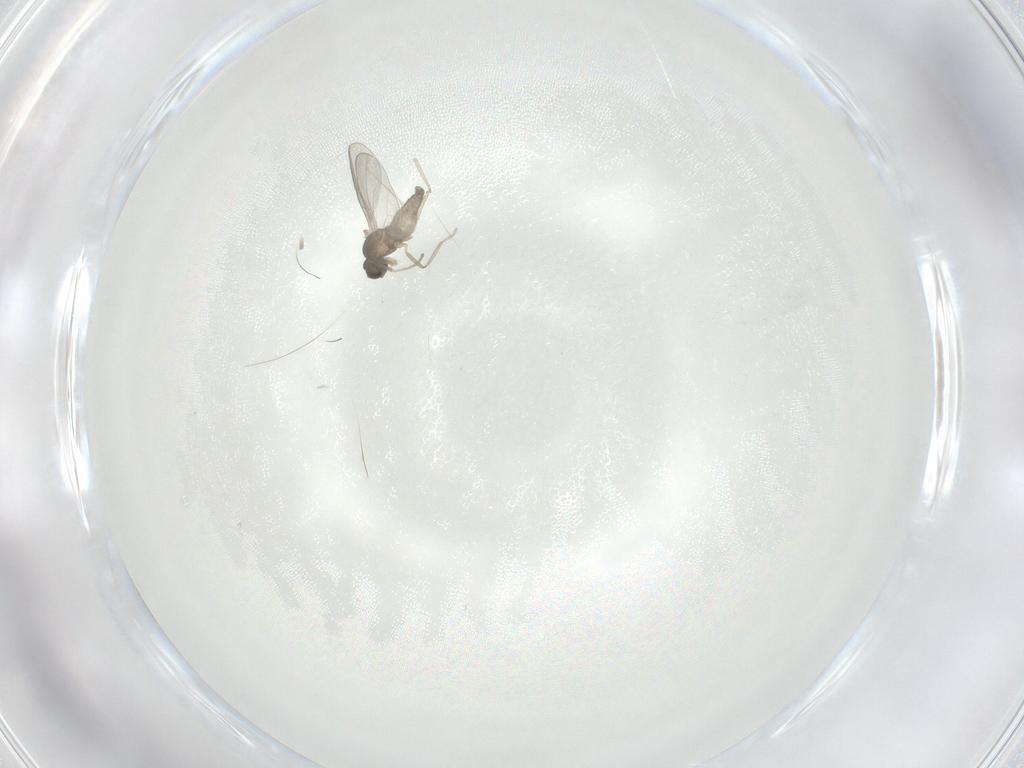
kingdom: Animalia
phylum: Arthropoda
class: Insecta
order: Diptera
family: Cecidomyiidae
